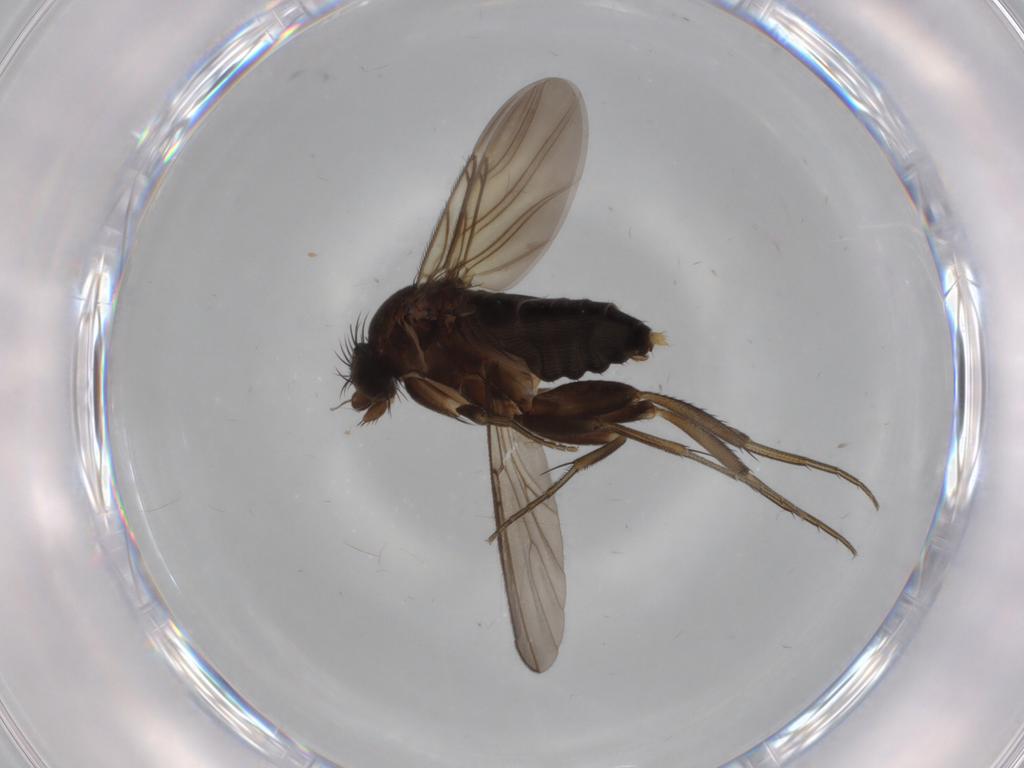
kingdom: Animalia
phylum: Arthropoda
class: Insecta
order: Diptera
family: Phoridae
